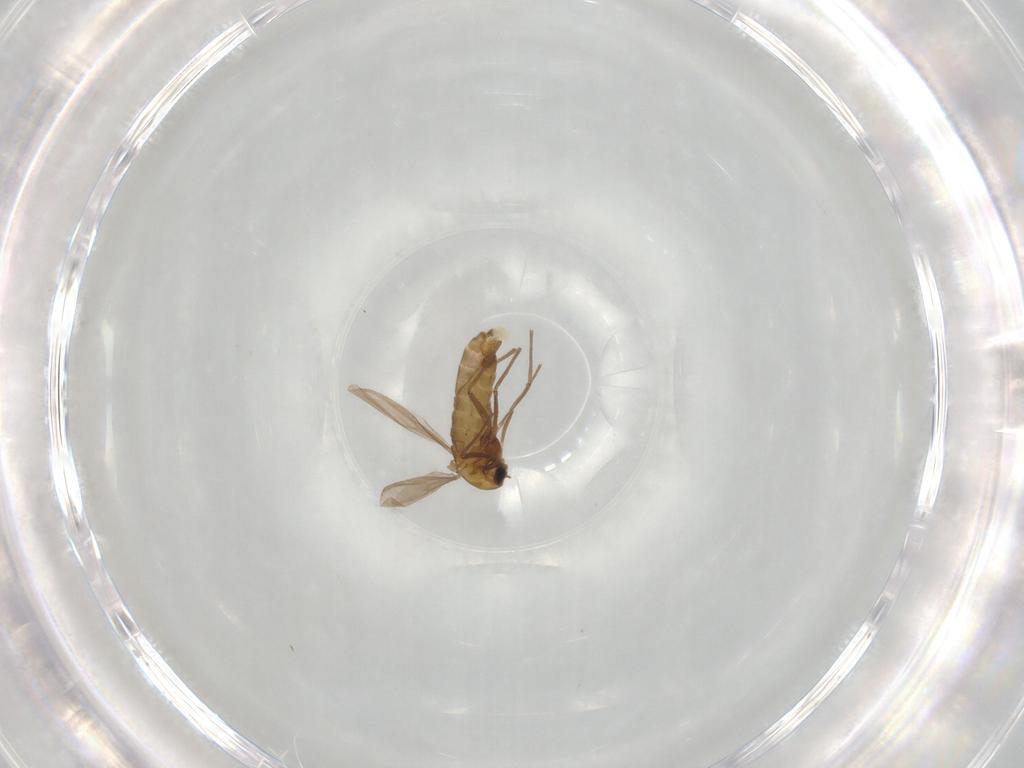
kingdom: Animalia
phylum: Arthropoda
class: Insecta
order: Diptera
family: Chironomidae
